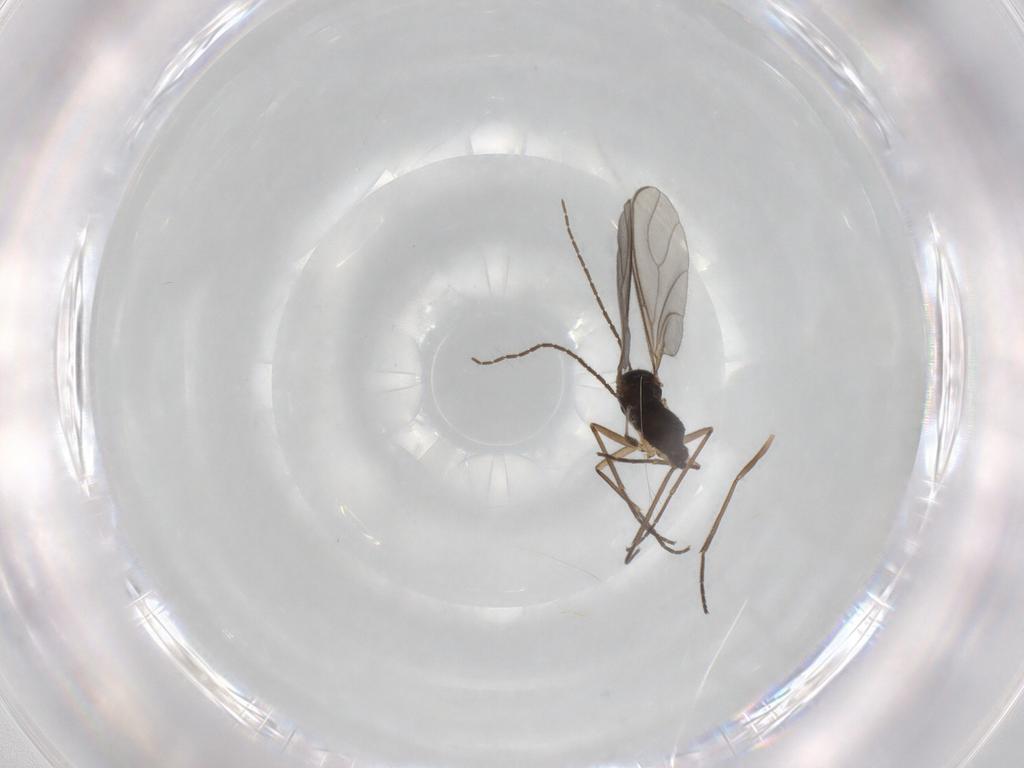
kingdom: Animalia
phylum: Arthropoda
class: Insecta
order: Diptera
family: Sciaridae
